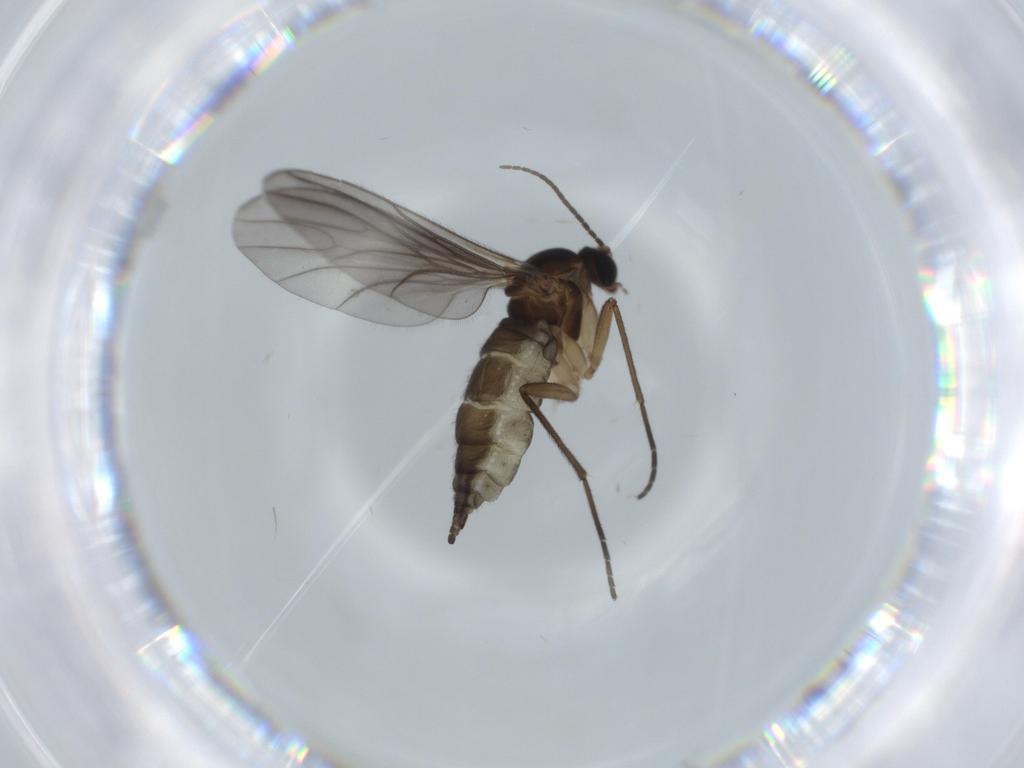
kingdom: Animalia
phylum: Arthropoda
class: Insecta
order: Diptera
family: Sciaridae
